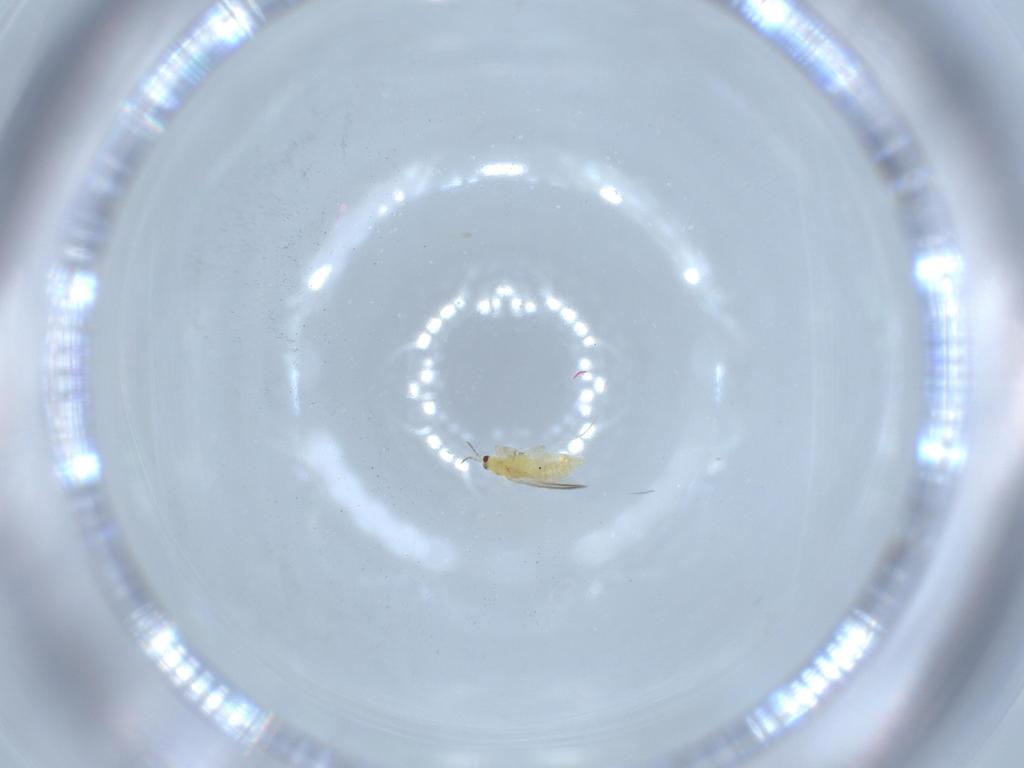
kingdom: Animalia
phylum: Arthropoda
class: Insecta
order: Thysanoptera
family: Thripidae
